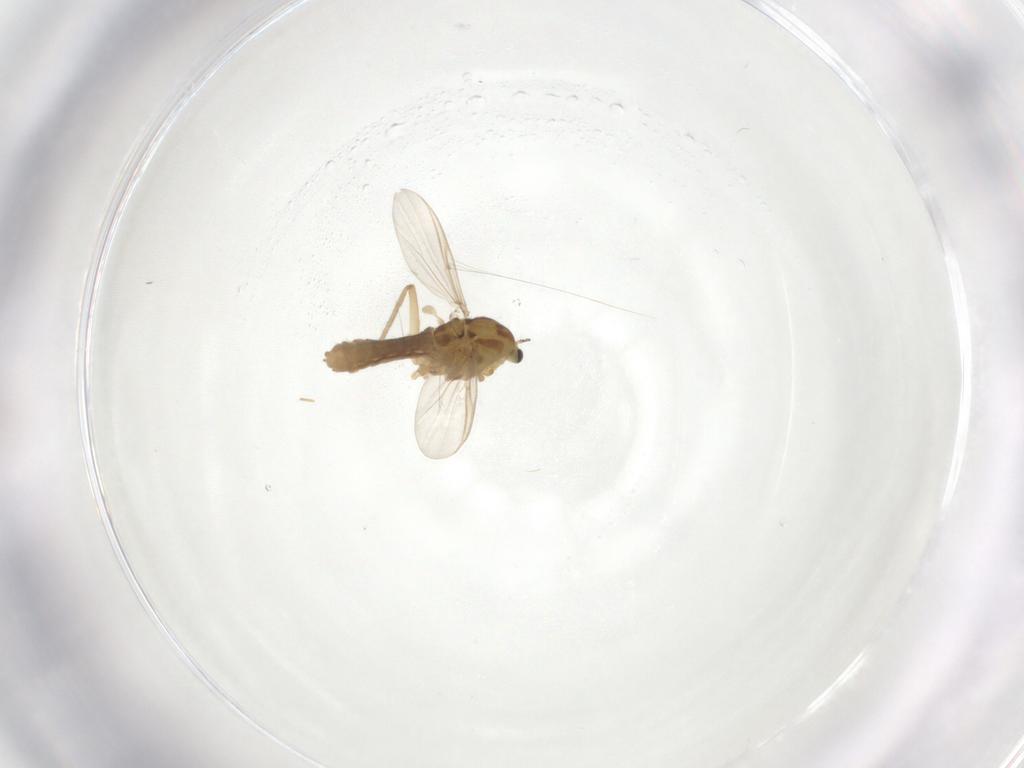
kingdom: Animalia
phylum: Arthropoda
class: Insecta
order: Diptera
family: Chironomidae
